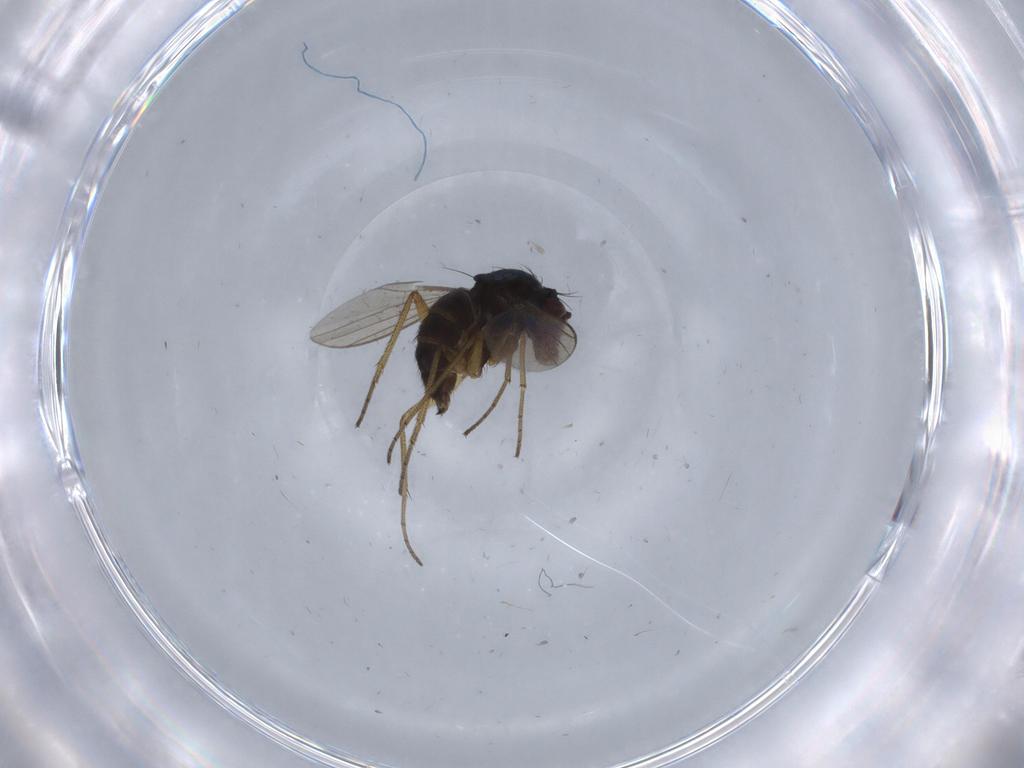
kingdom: Animalia
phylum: Arthropoda
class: Insecta
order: Diptera
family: Dolichopodidae
